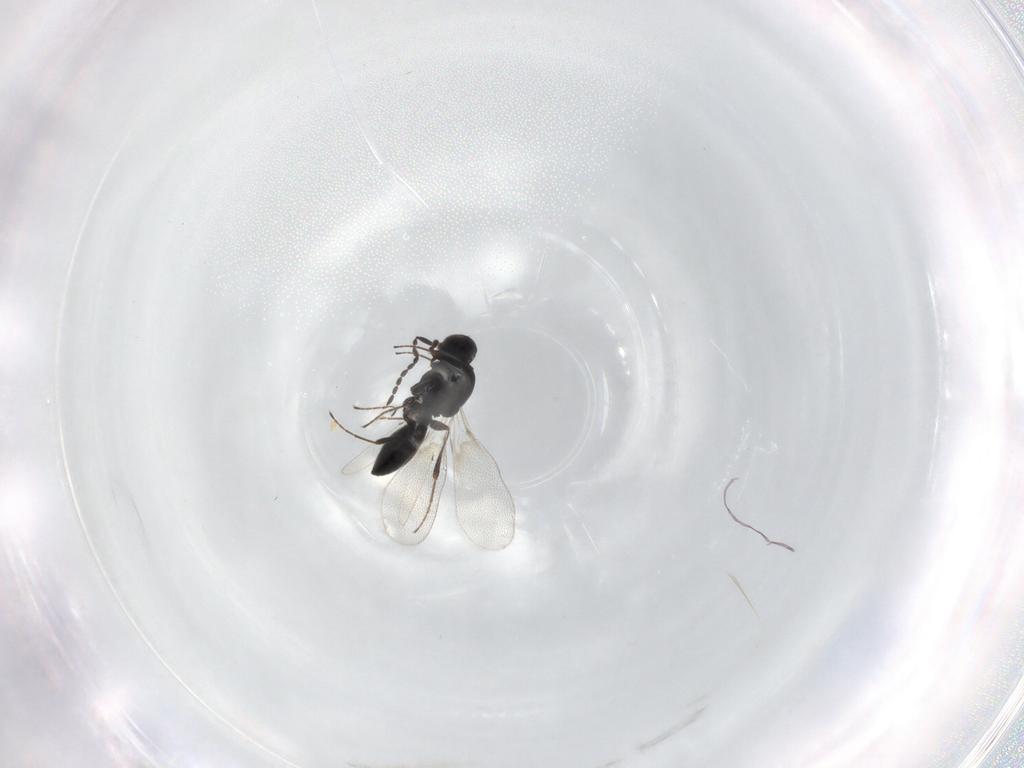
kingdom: Animalia
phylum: Arthropoda
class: Insecta
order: Hymenoptera
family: Platygastridae
